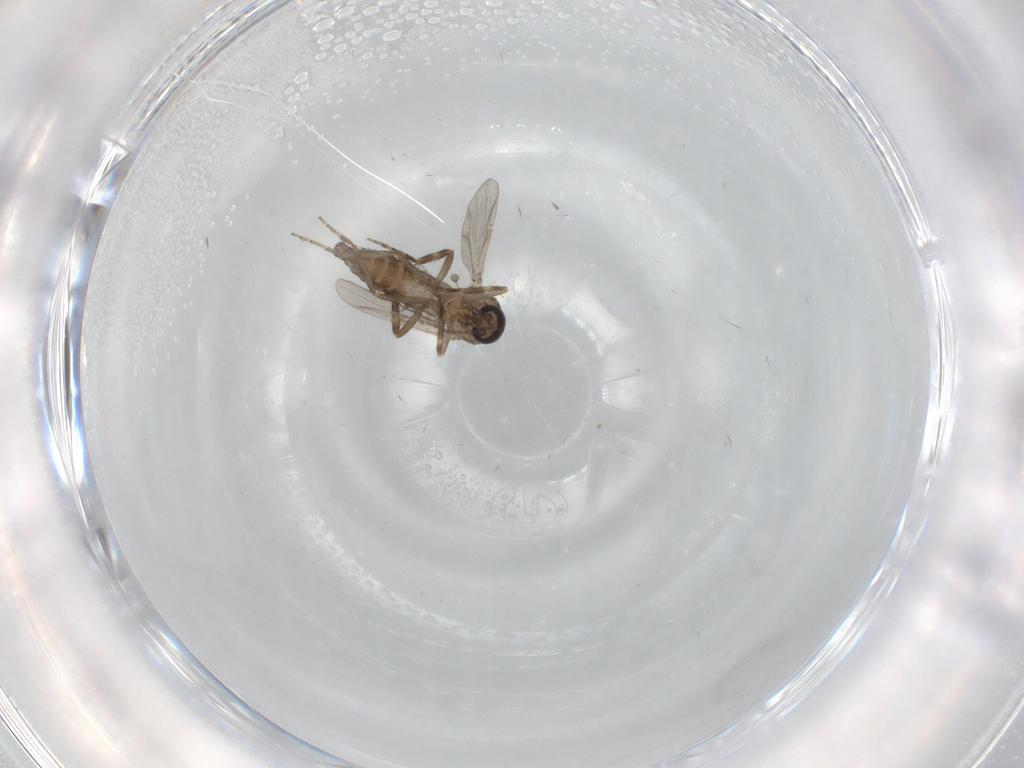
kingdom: Animalia
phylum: Arthropoda
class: Insecta
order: Diptera
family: Ceratopogonidae
